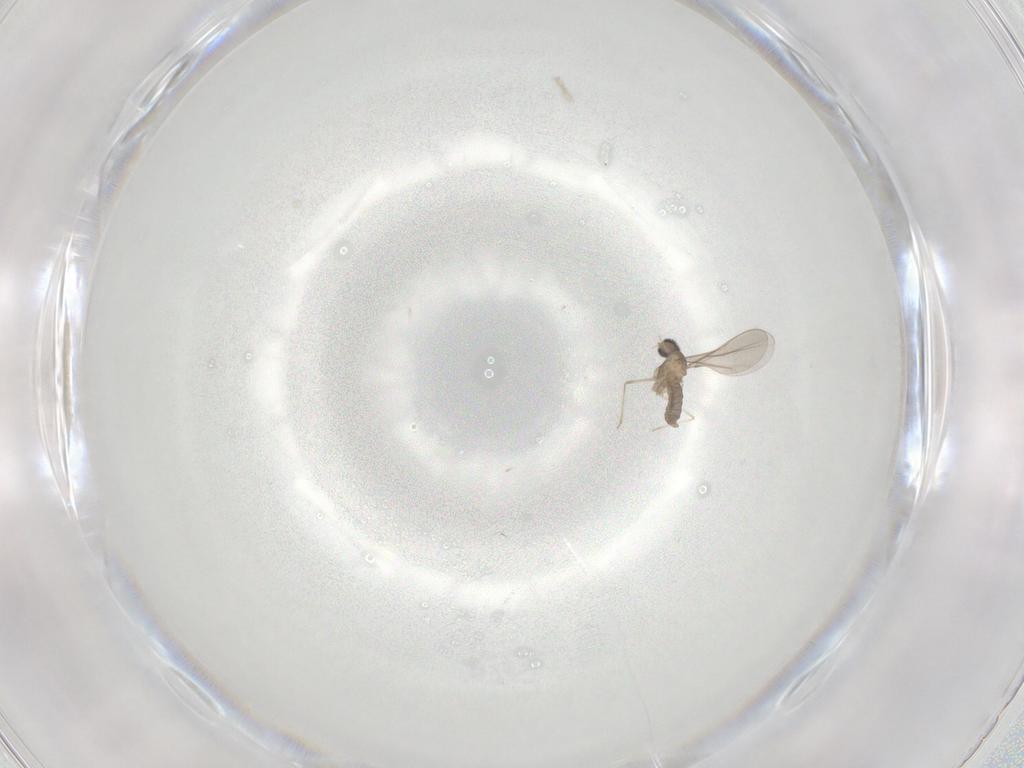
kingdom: Animalia
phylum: Arthropoda
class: Insecta
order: Diptera
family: Cecidomyiidae
